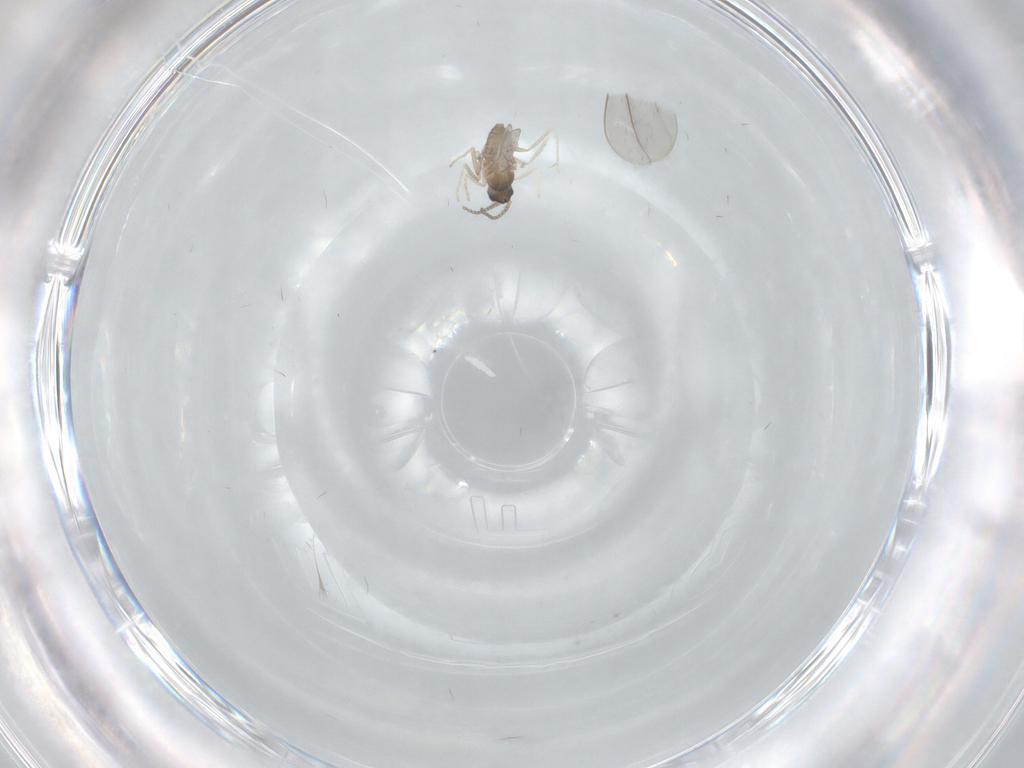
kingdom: Animalia
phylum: Arthropoda
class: Insecta
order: Diptera
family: Cecidomyiidae
